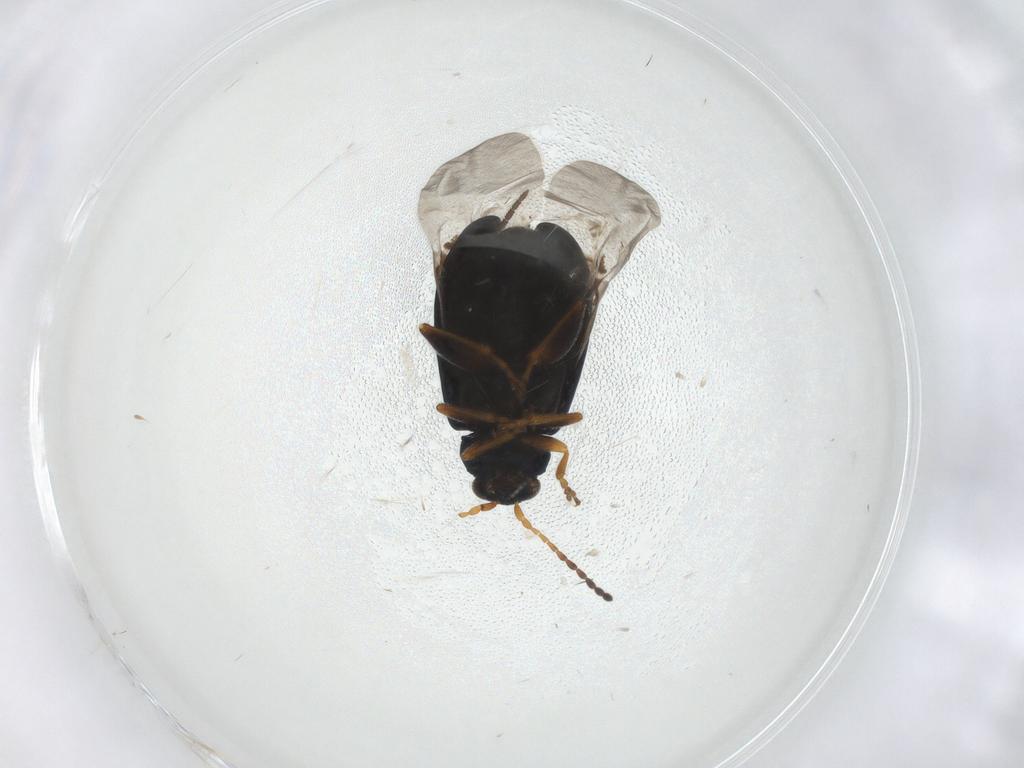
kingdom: Animalia
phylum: Arthropoda
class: Insecta
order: Coleoptera
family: Chrysomelidae
